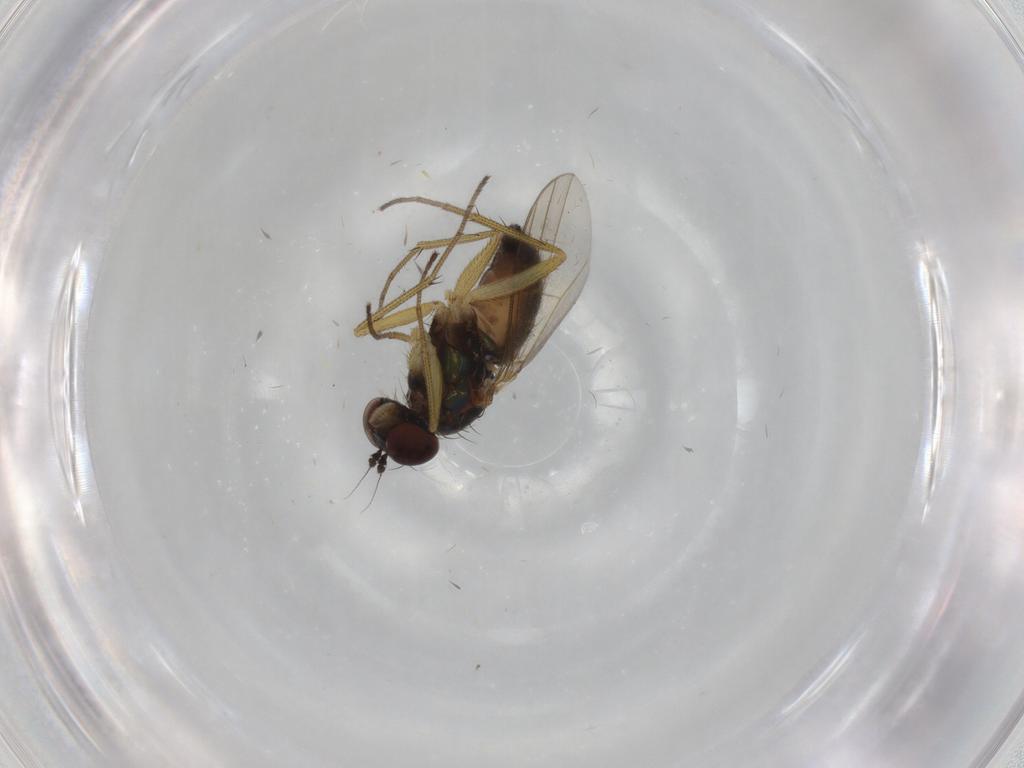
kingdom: Animalia
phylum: Arthropoda
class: Insecta
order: Diptera
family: Dolichopodidae
